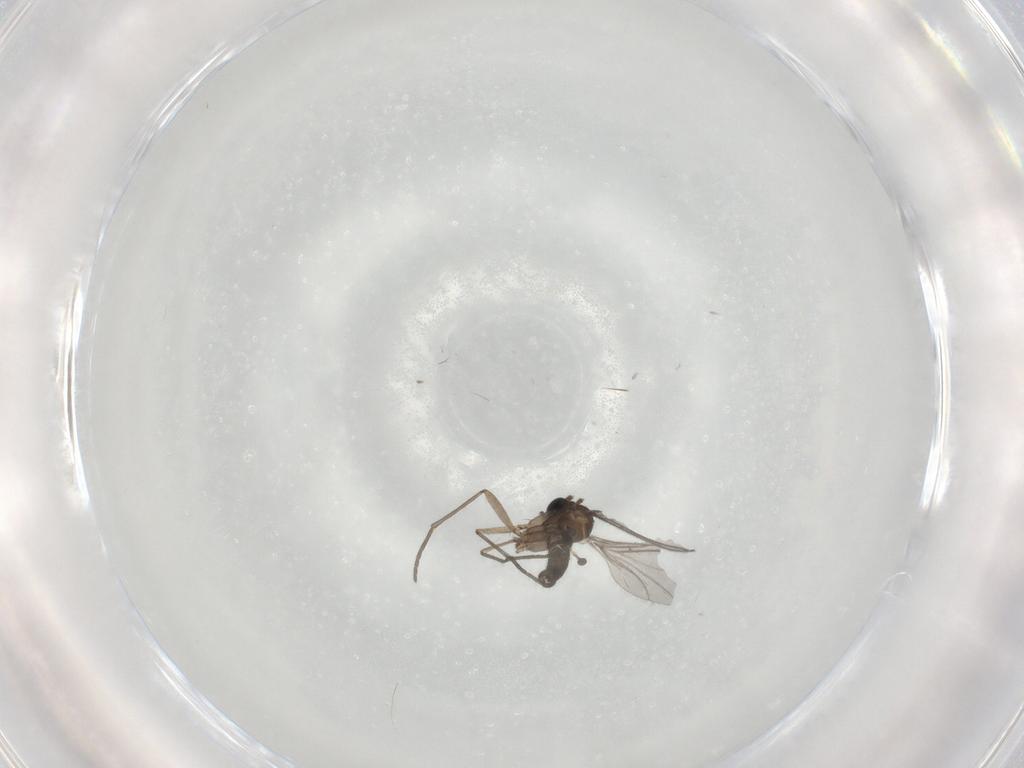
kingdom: Animalia
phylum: Arthropoda
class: Insecta
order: Diptera
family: Sciaridae
